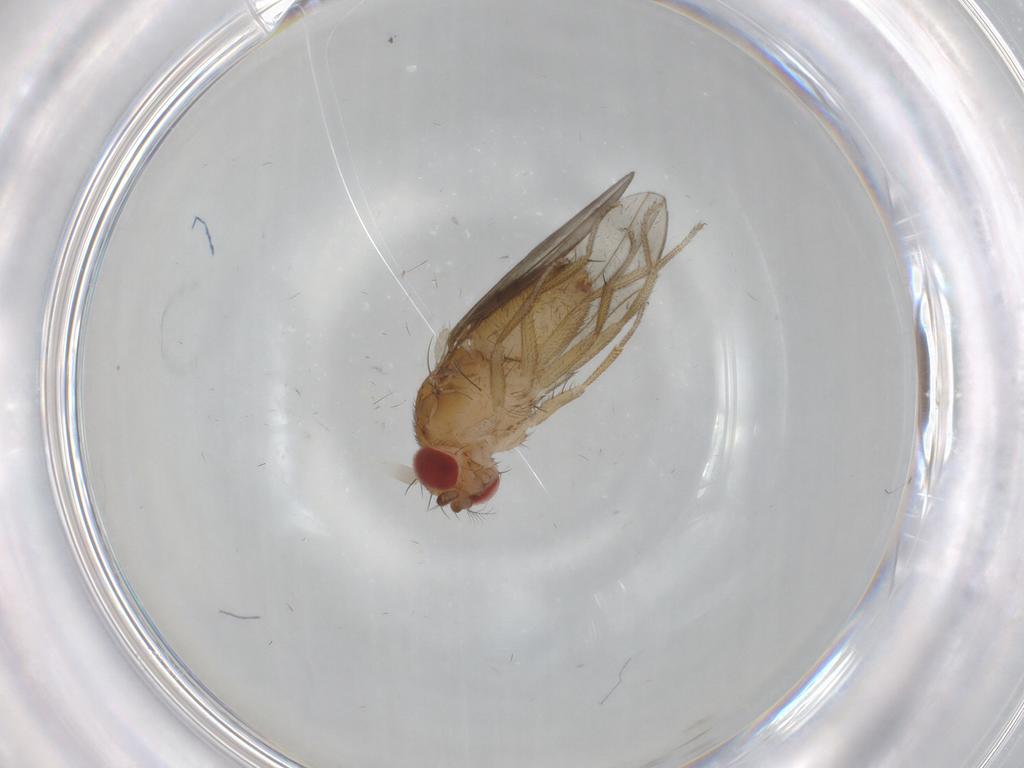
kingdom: Animalia
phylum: Arthropoda
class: Insecta
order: Diptera
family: Drosophilidae
